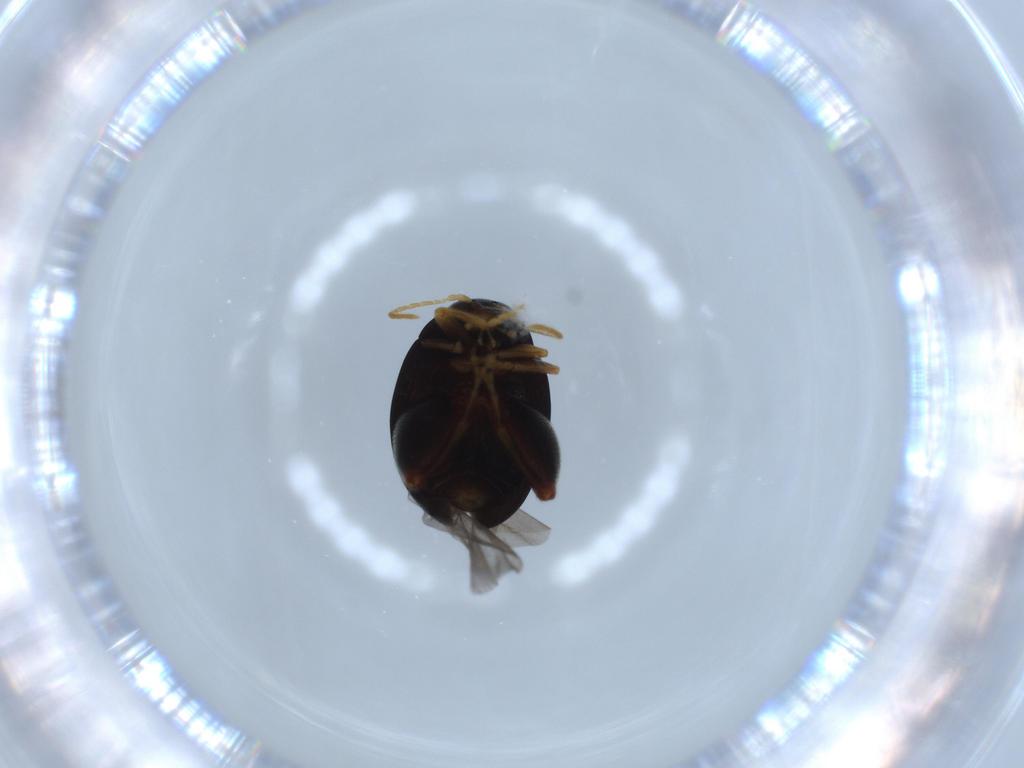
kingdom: Animalia
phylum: Arthropoda
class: Insecta
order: Coleoptera
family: Chrysomelidae
